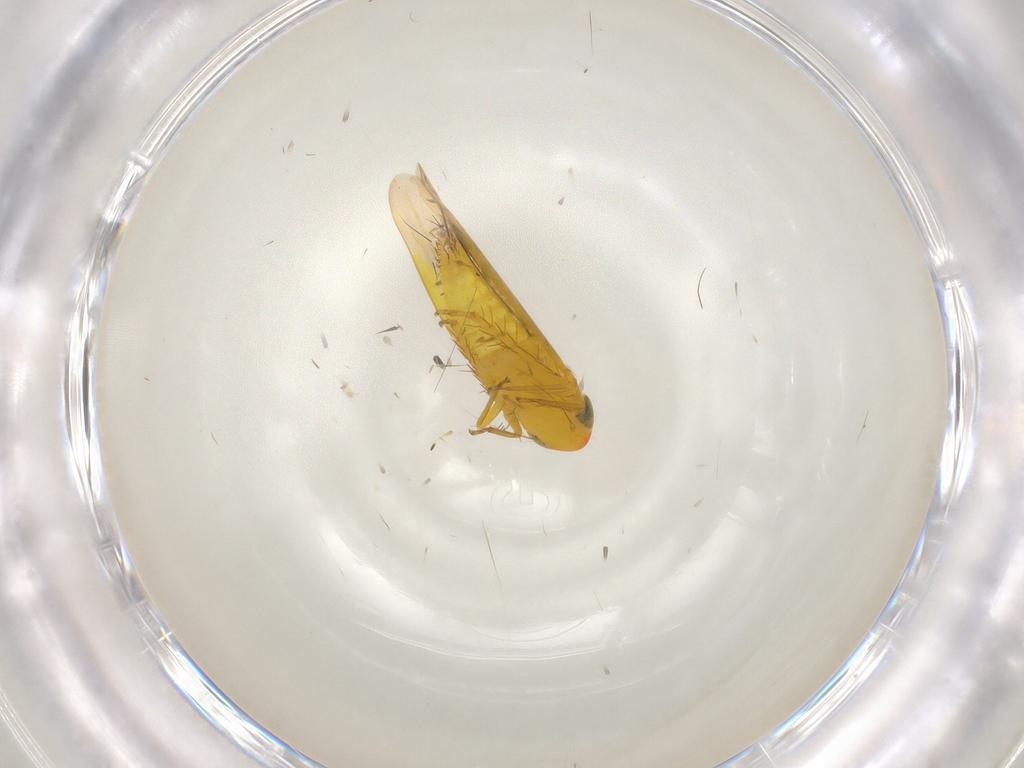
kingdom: Animalia
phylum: Arthropoda
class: Insecta
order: Hemiptera
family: Cicadellidae
